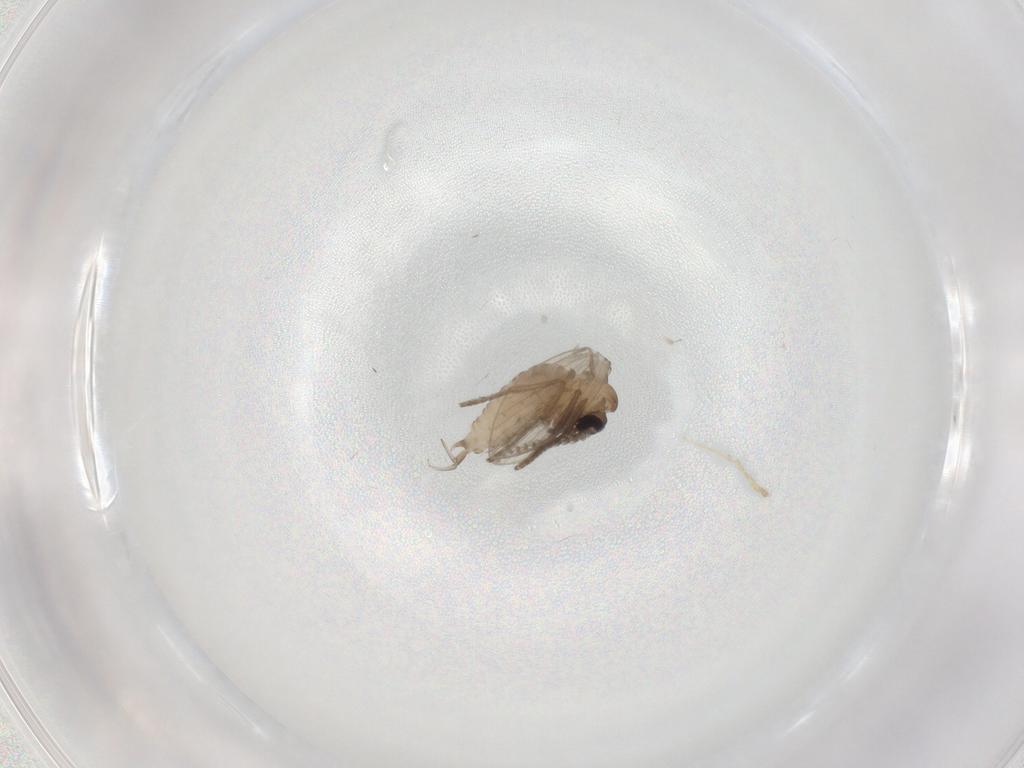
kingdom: Animalia
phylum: Arthropoda
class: Insecta
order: Diptera
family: Psychodidae
